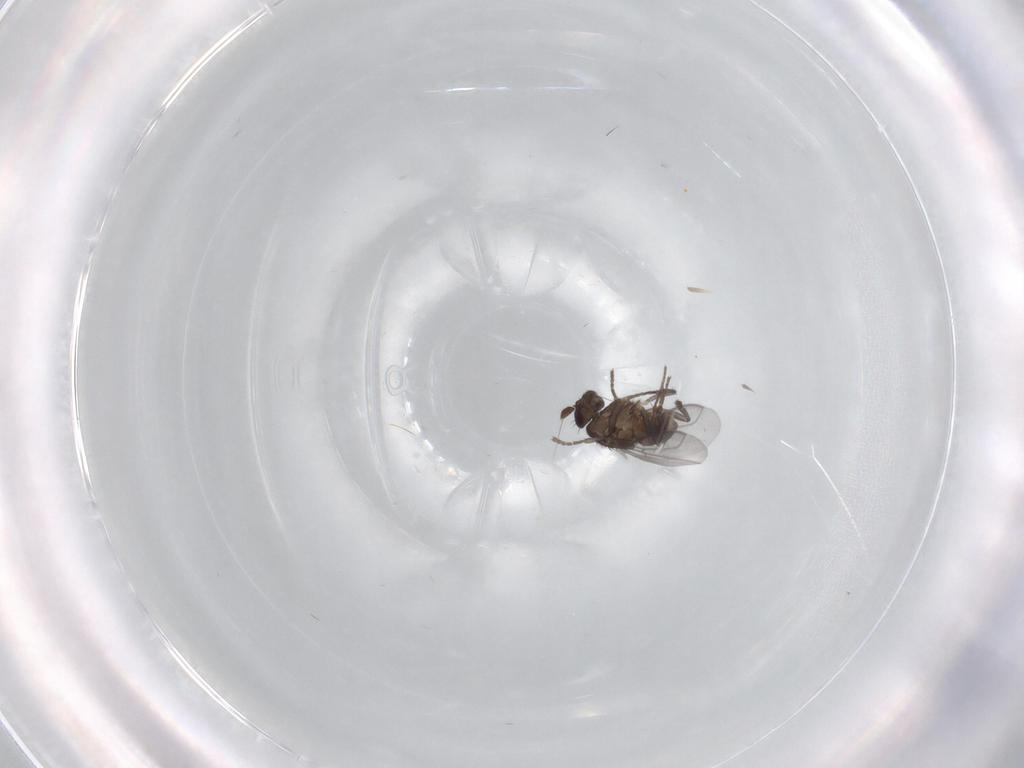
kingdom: Animalia
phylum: Arthropoda
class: Insecta
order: Diptera
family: Sphaeroceridae
